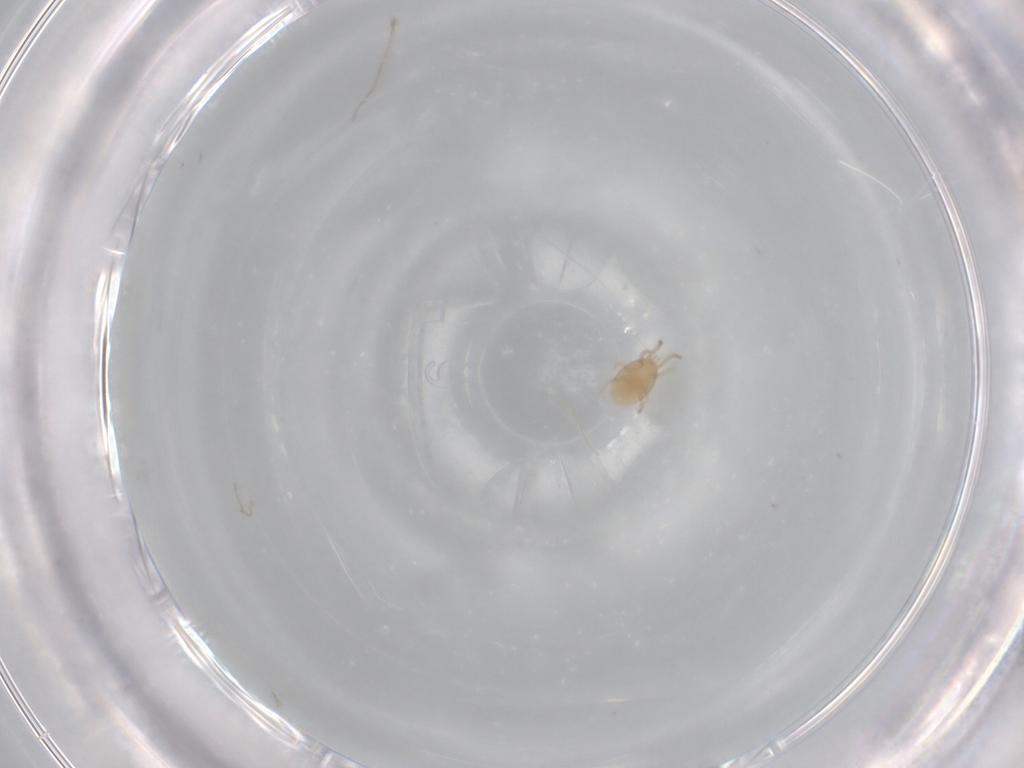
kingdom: Animalia
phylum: Arthropoda
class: Arachnida
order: Mesostigmata
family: Laelapidae
